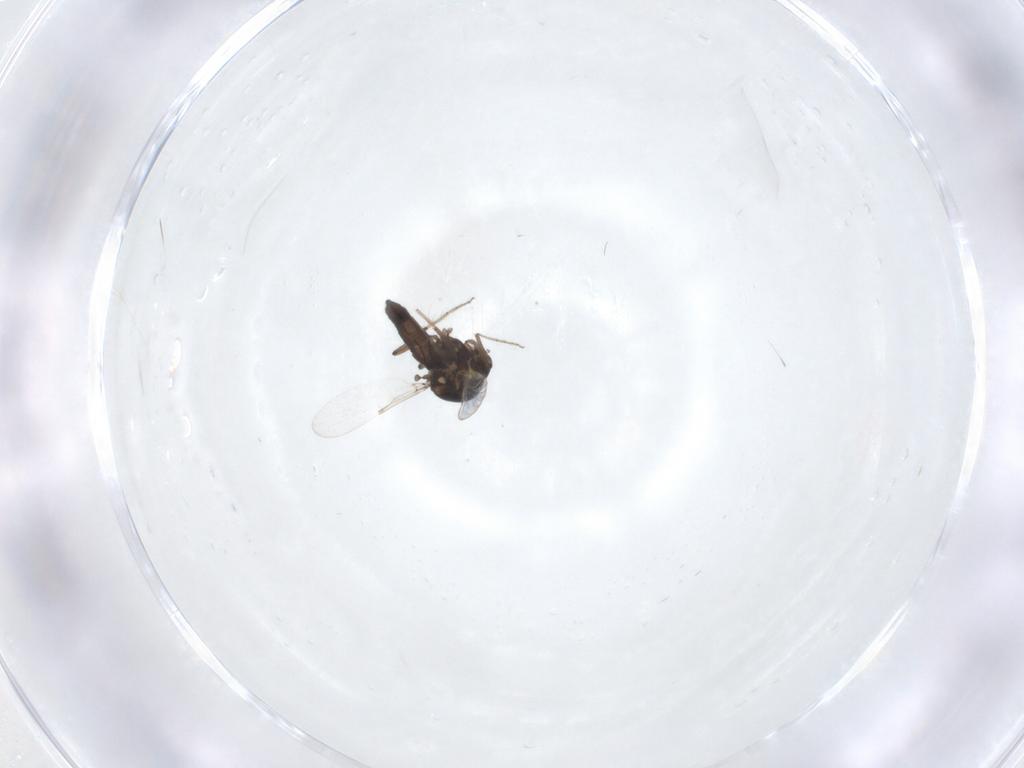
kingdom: Animalia
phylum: Arthropoda
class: Insecta
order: Diptera
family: Ceratopogonidae
